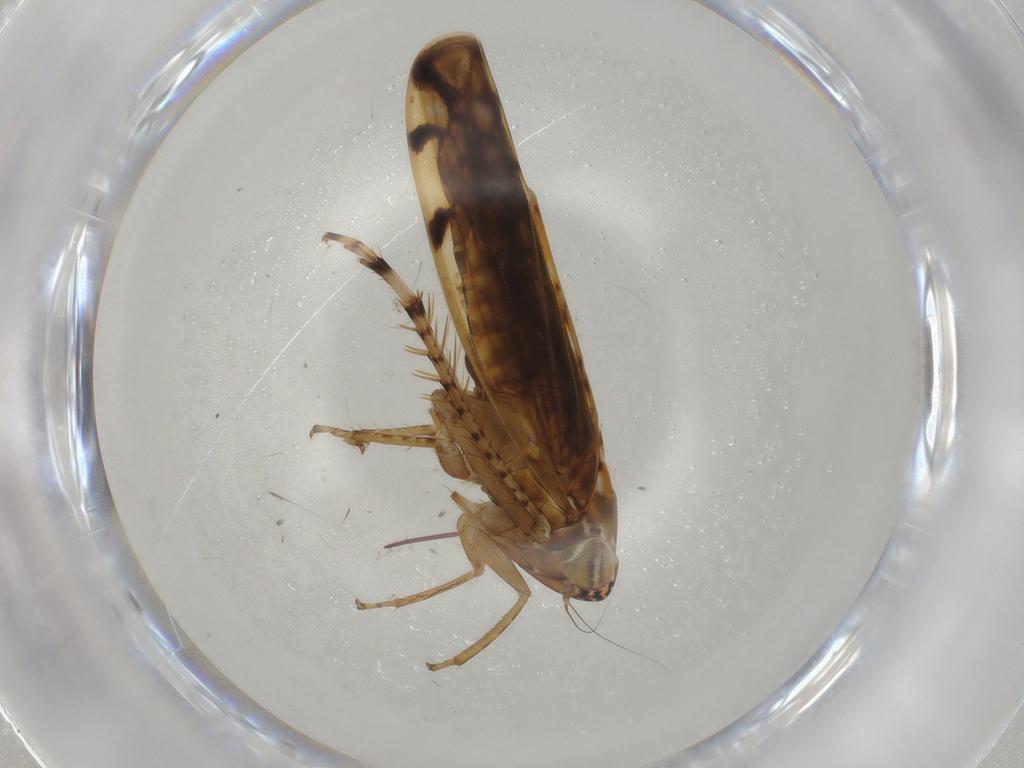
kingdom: Animalia
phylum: Arthropoda
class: Insecta
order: Hemiptera
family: Cicadellidae
